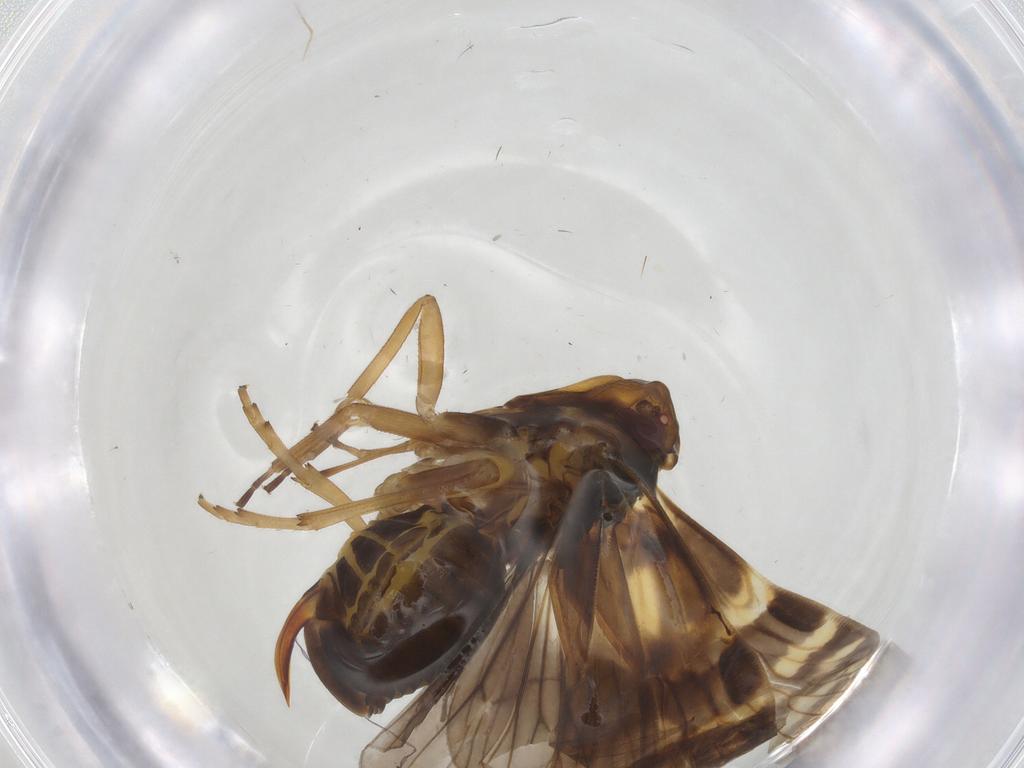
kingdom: Animalia
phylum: Arthropoda
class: Insecta
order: Hemiptera
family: Cixiidae
